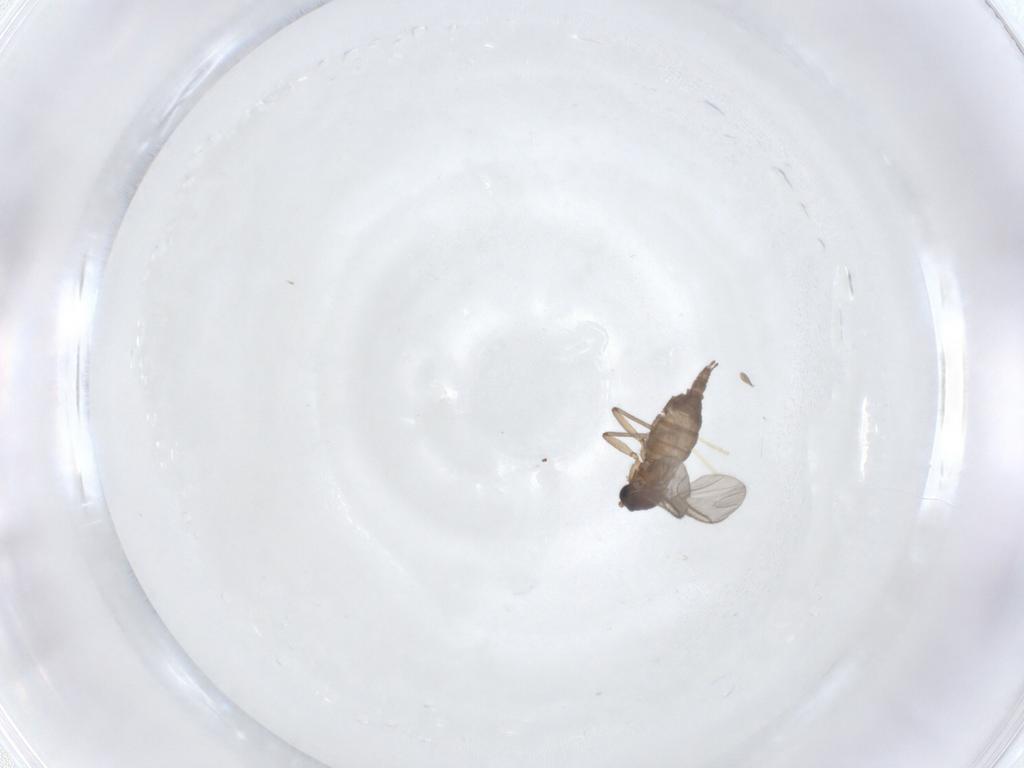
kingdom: Animalia
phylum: Arthropoda
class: Insecta
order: Diptera
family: Sciaridae
